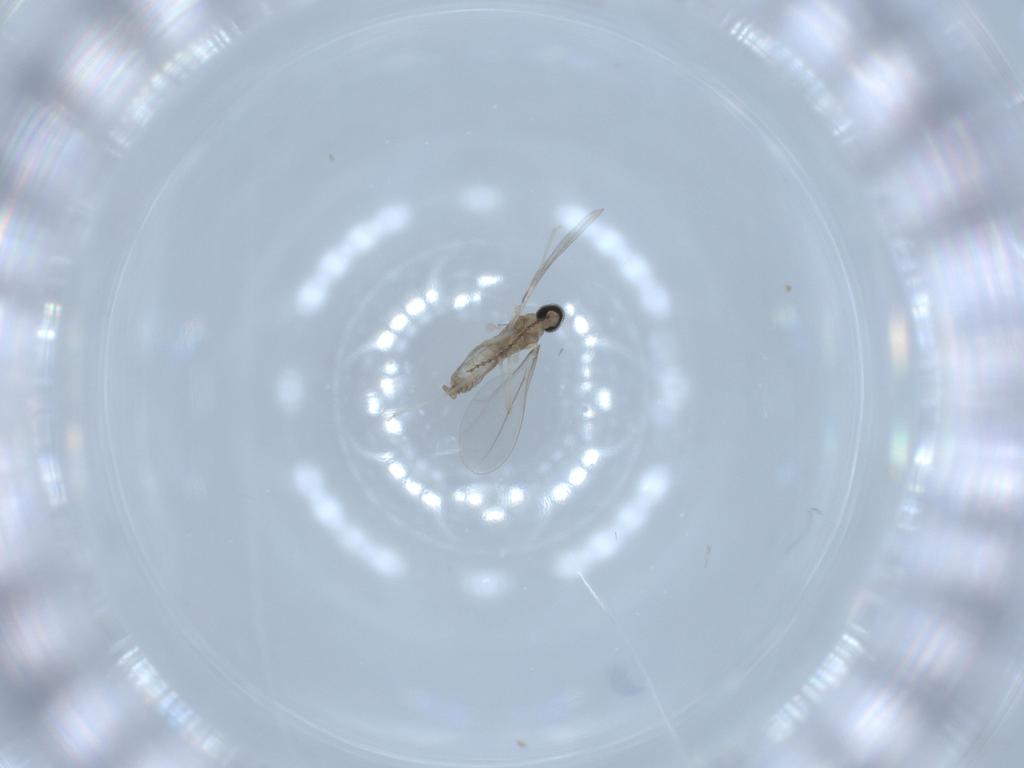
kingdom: Animalia
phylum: Arthropoda
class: Insecta
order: Diptera
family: Cecidomyiidae
